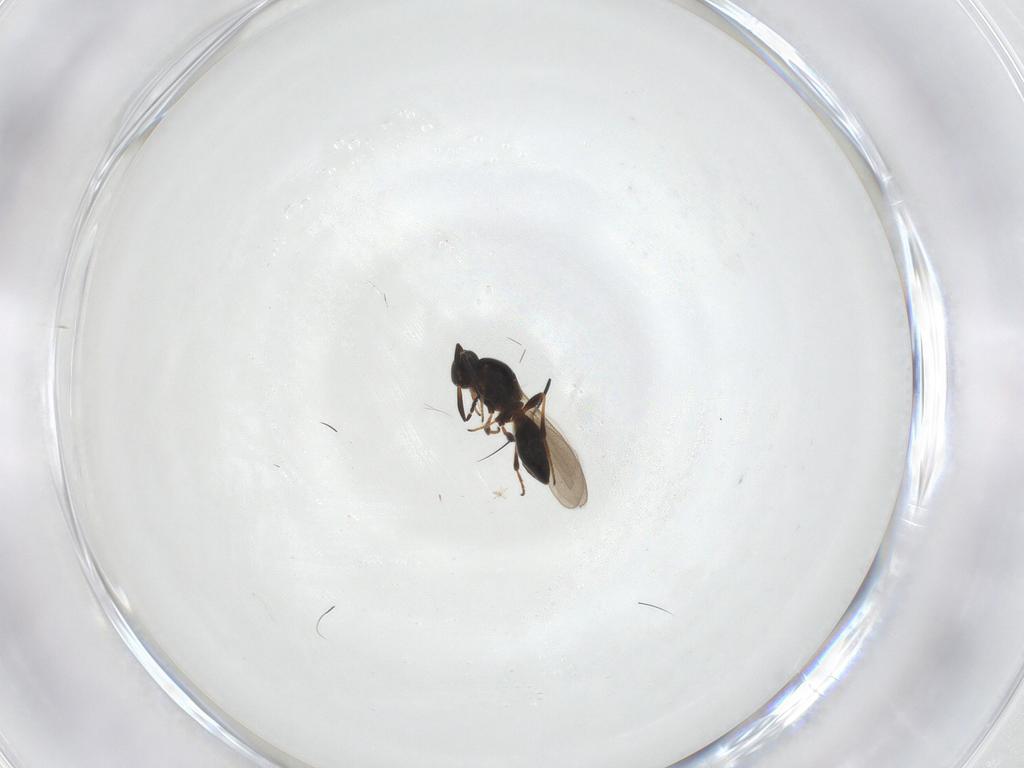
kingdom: Animalia
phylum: Arthropoda
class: Insecta
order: Hymenoptera
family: Platygastridae
